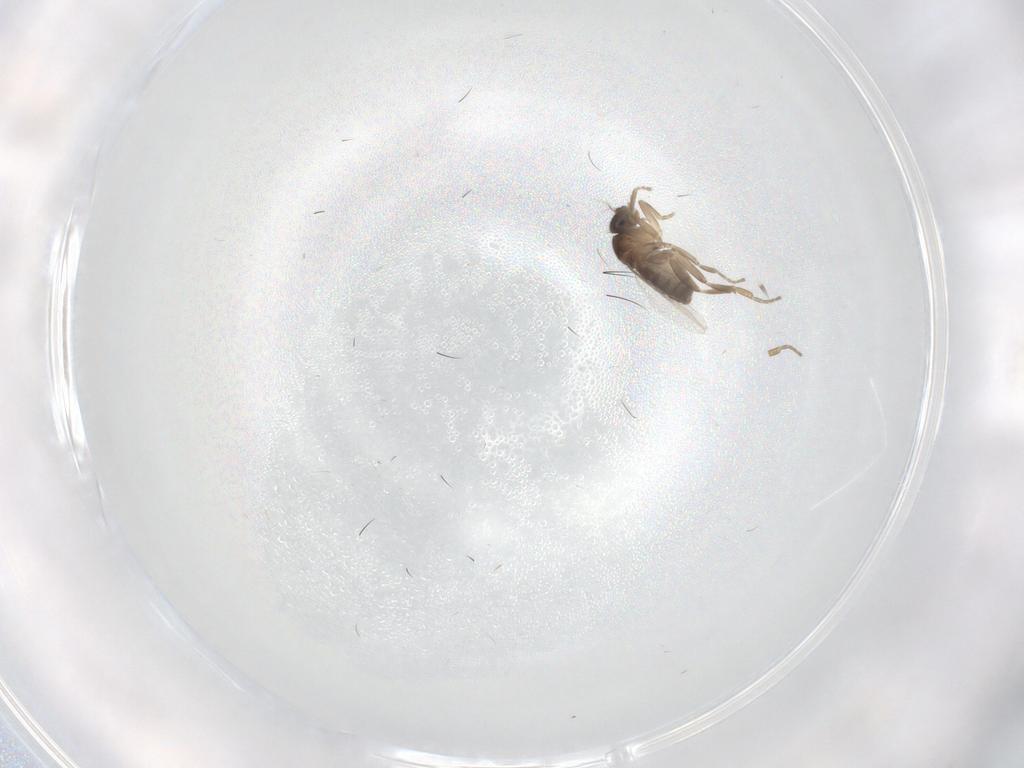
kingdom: Animalia
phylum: Arthropoda
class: Insecta
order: Diptera
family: Phoridae
